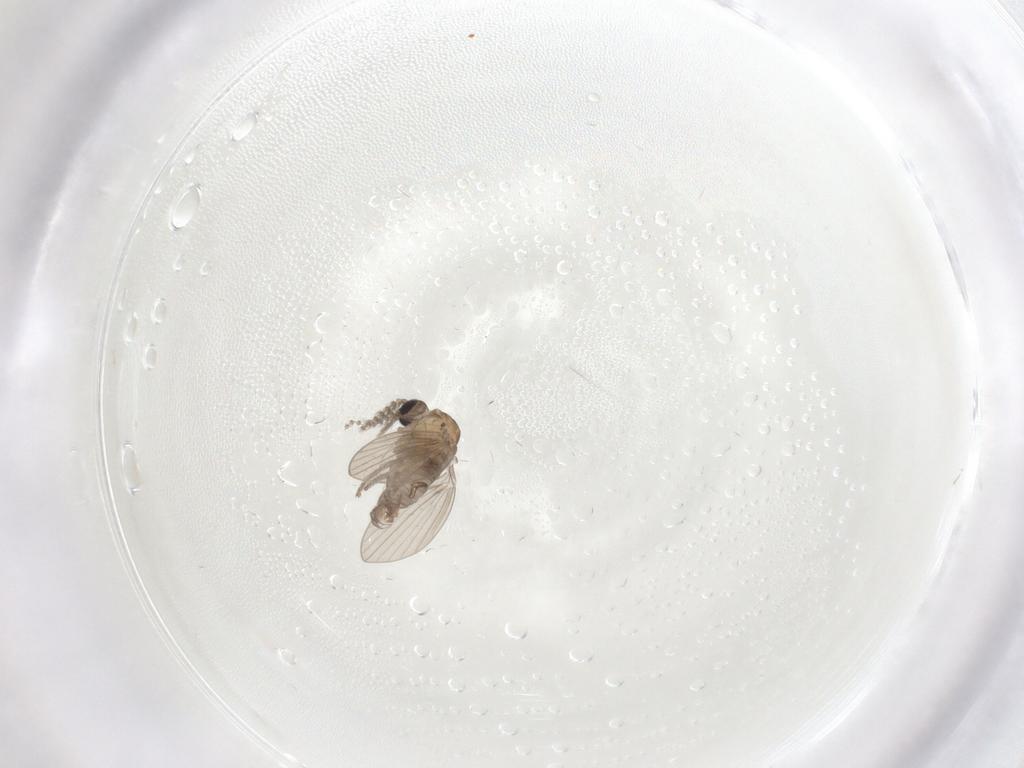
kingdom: Animalia
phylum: Arthropoda
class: Insecta
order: Diptera
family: Psychodidae
